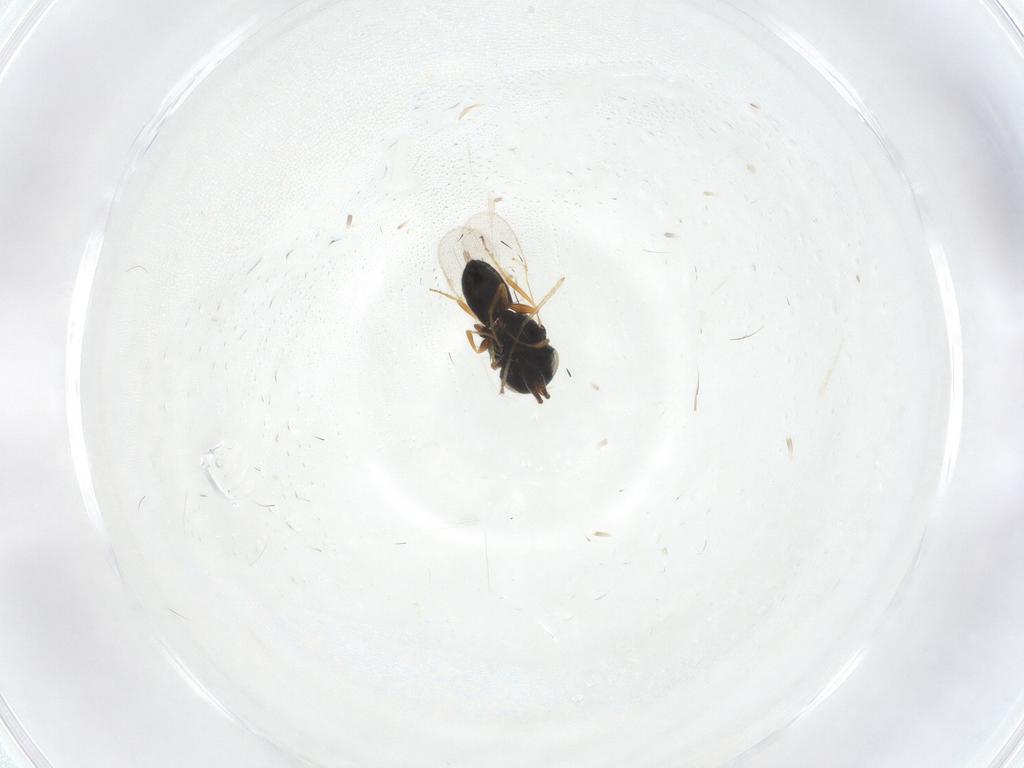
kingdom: Animalia
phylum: Arthropoda
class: Insecta
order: Hymenoptera
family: Scelionidae
